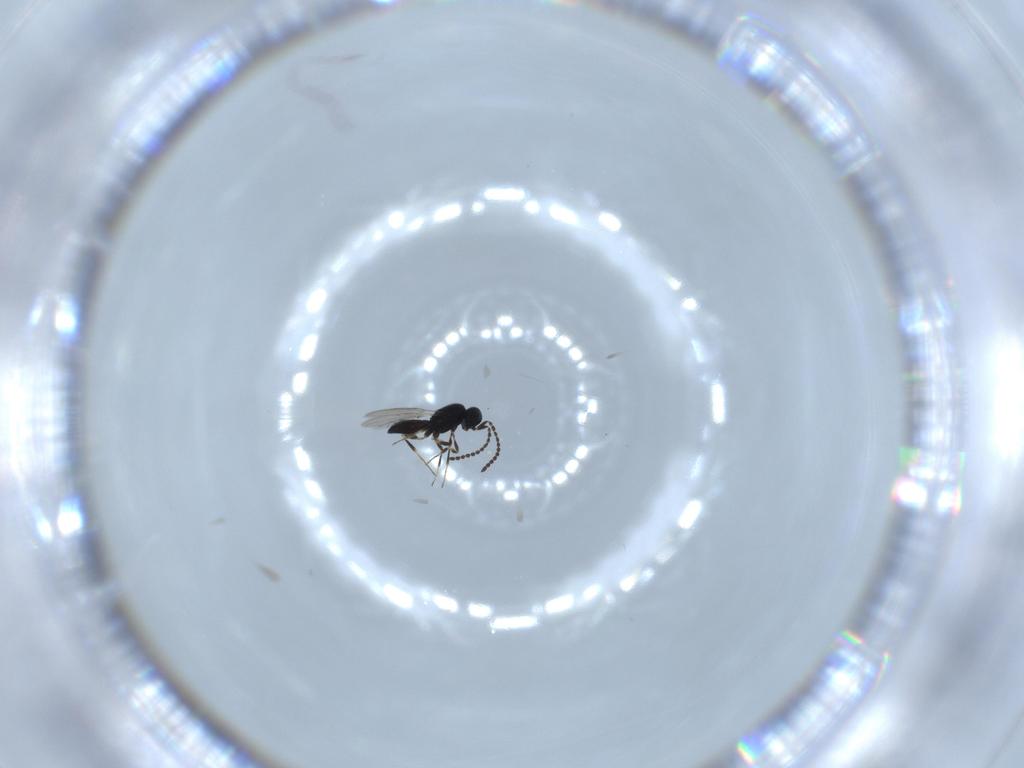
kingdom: Animalia
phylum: Arthropoda
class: Insecta
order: Hymenoptera
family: Scelionidae
